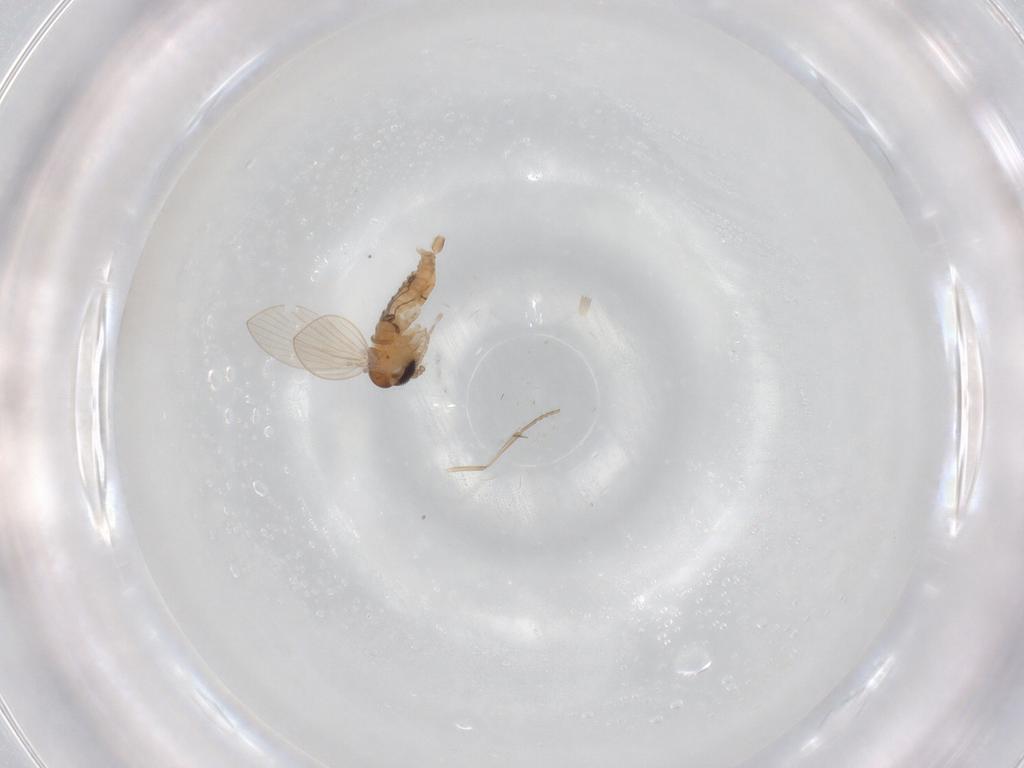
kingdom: Animalia
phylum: Arthropoda
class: Insecta
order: Diptera
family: Psychodidae
